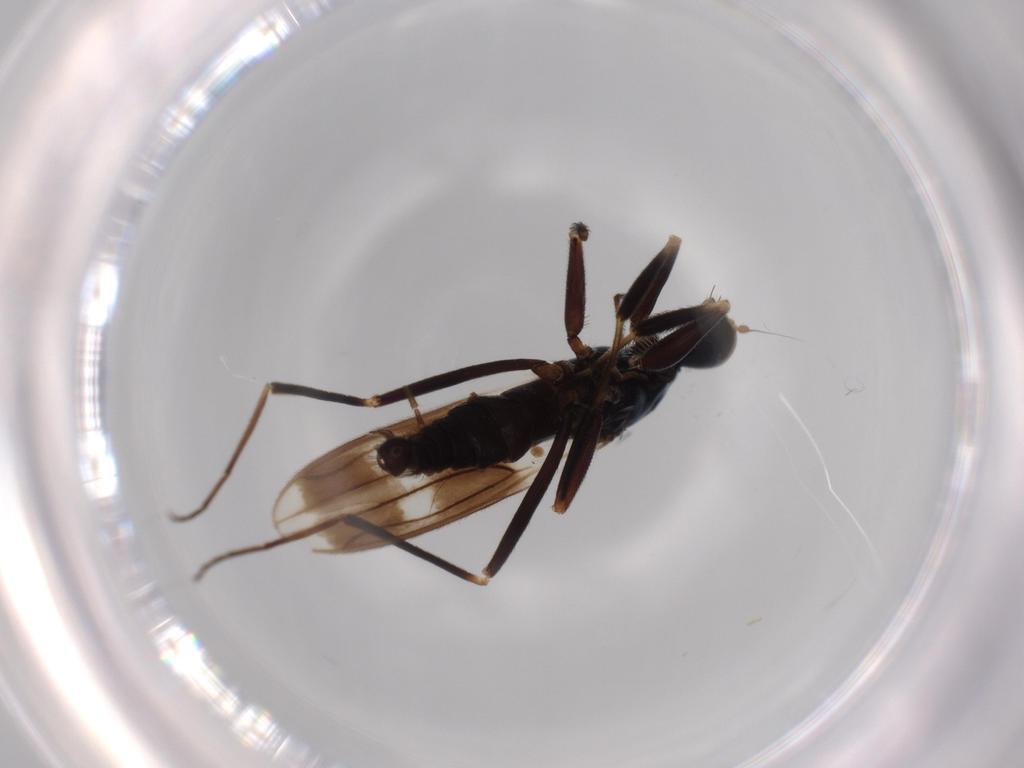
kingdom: Animalia
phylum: Arthropoda
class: Insecta
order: Diptera
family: Hybotidae
